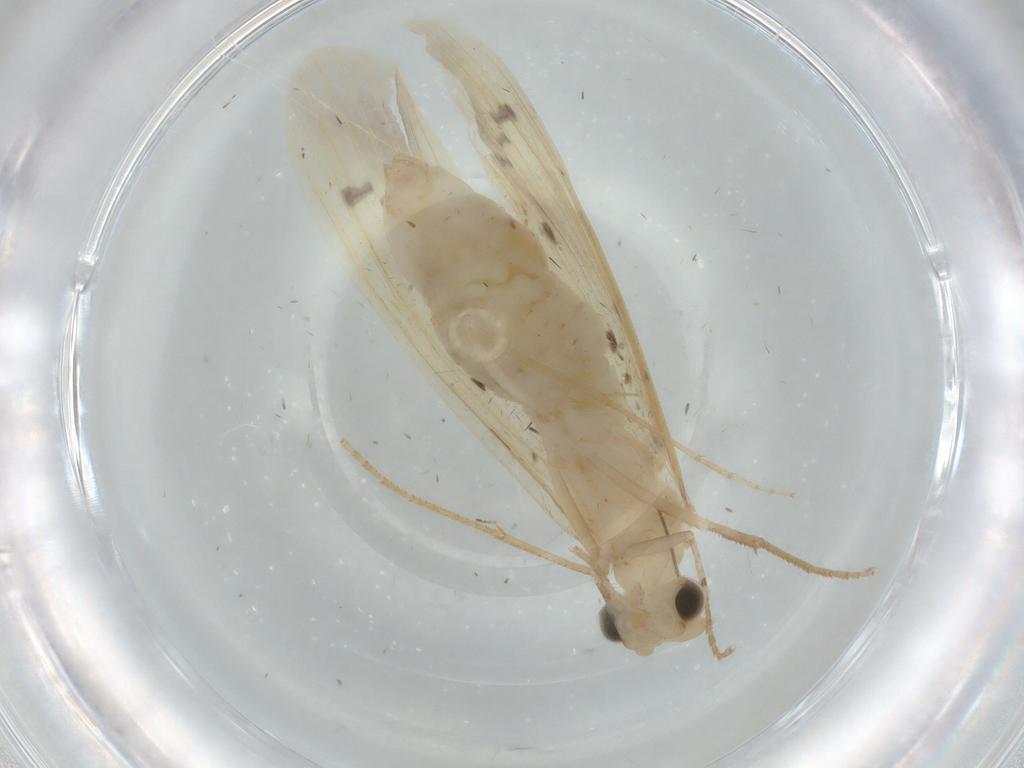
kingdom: Animalia
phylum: Arthropoda
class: Insecta
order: Trichoptera
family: Leptoceridae
